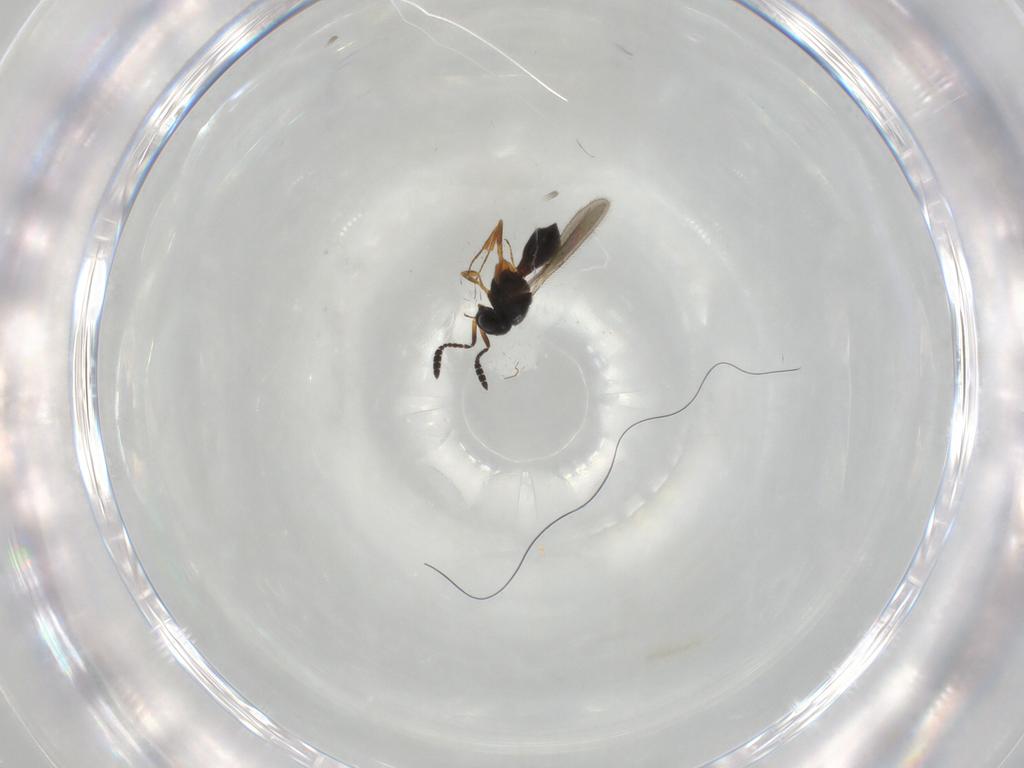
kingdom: Animalia
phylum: Arthropoda
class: Insecta
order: Hymenoptera
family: Scelionidae
